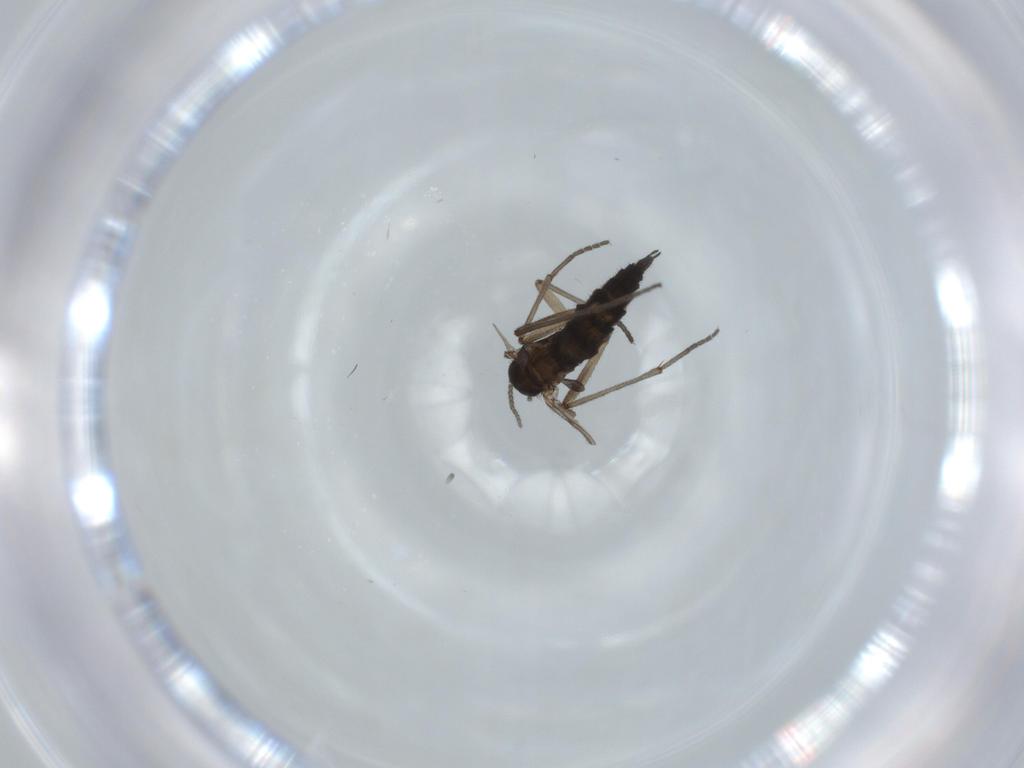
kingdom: Animalia
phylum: Arthropoda
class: Insecta
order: Diptera
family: Sciaridae
